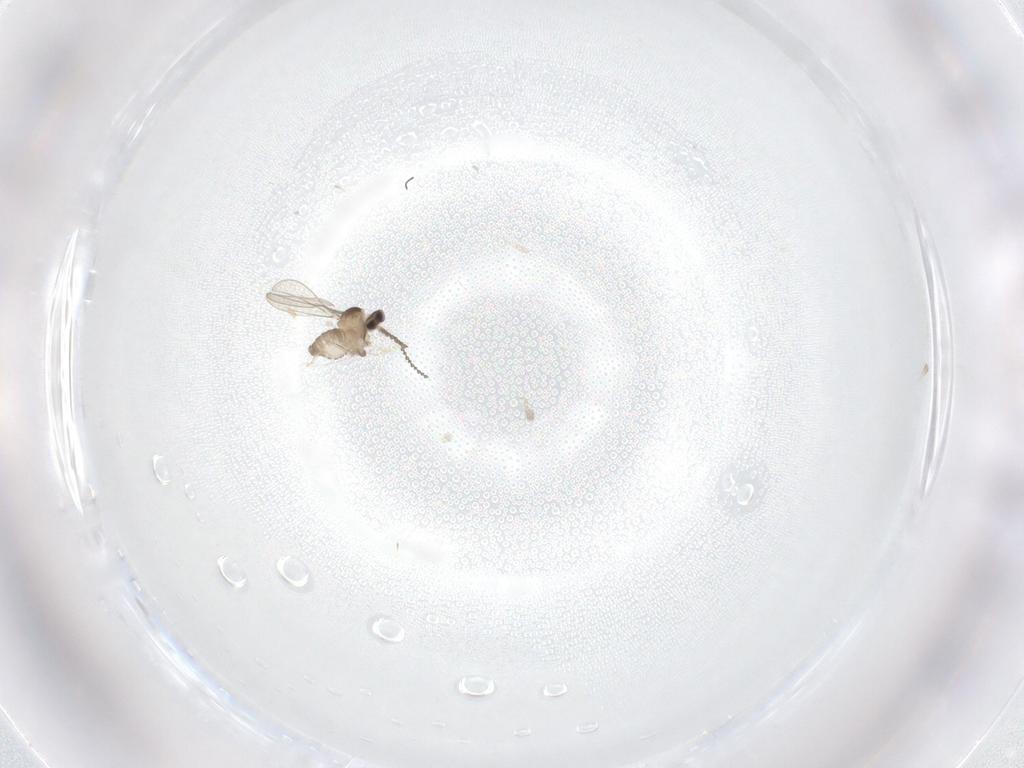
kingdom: Animalia
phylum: Arthropoda
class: Insecta
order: Diptera
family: Cecidomyiidae
